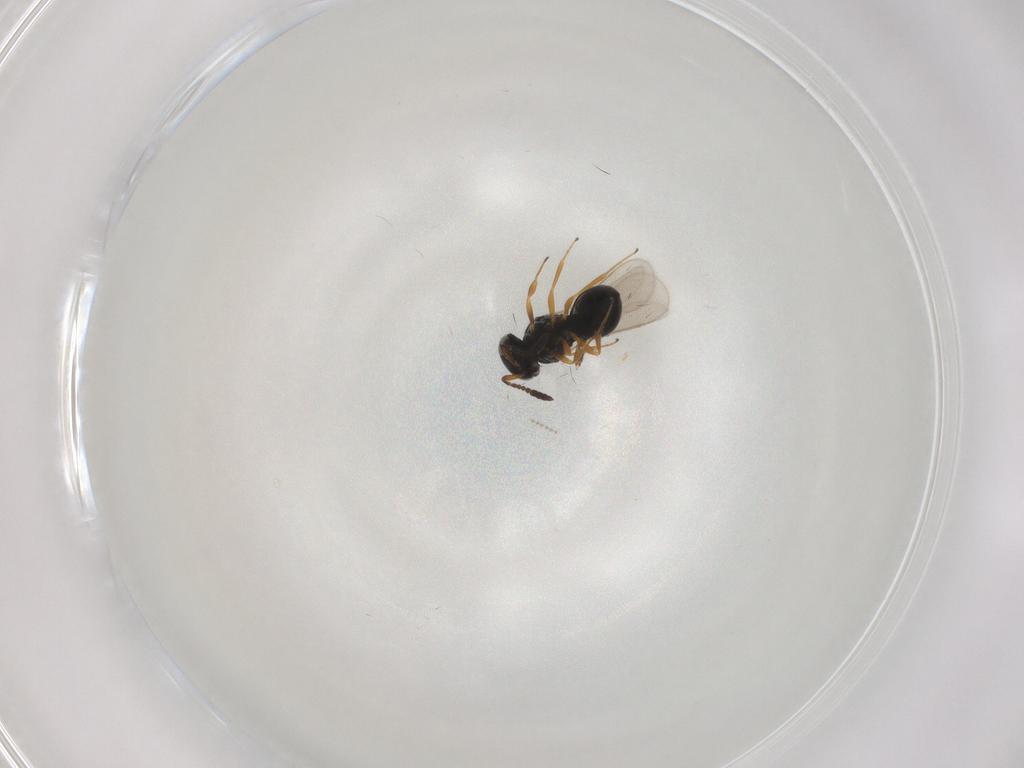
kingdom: Animalia
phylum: Arthropoda
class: Insecta
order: Hymenoptera
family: Scelionidae
